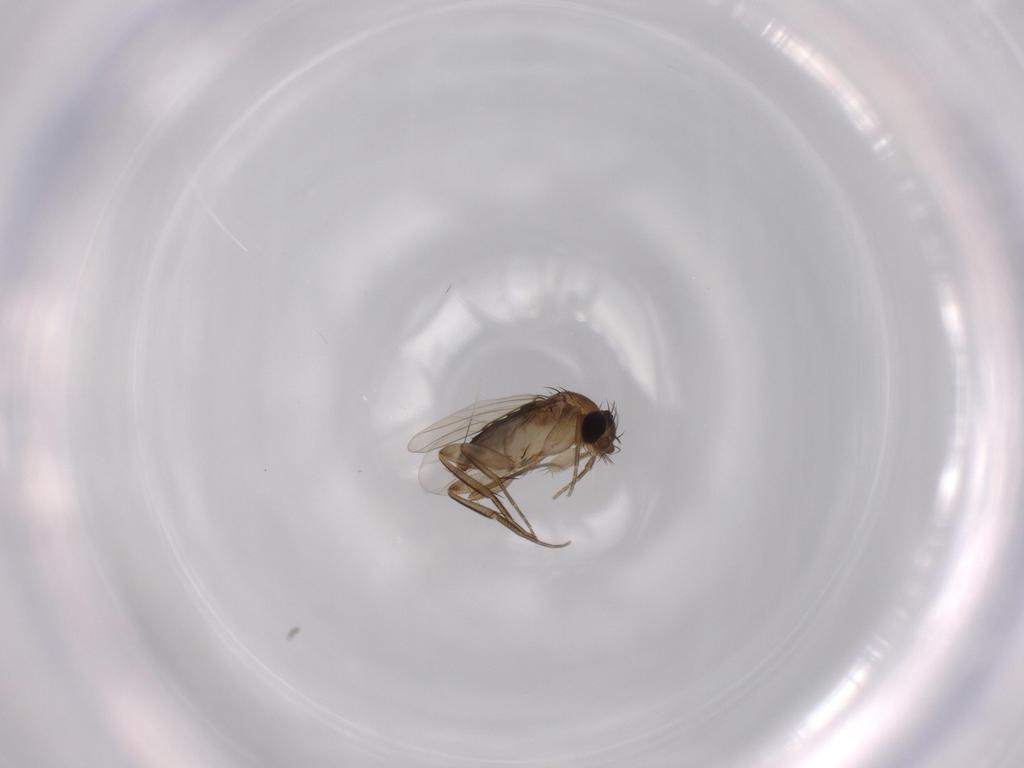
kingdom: Animalia
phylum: Arthropoda
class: Insecta
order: Diptera
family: Phoridae
